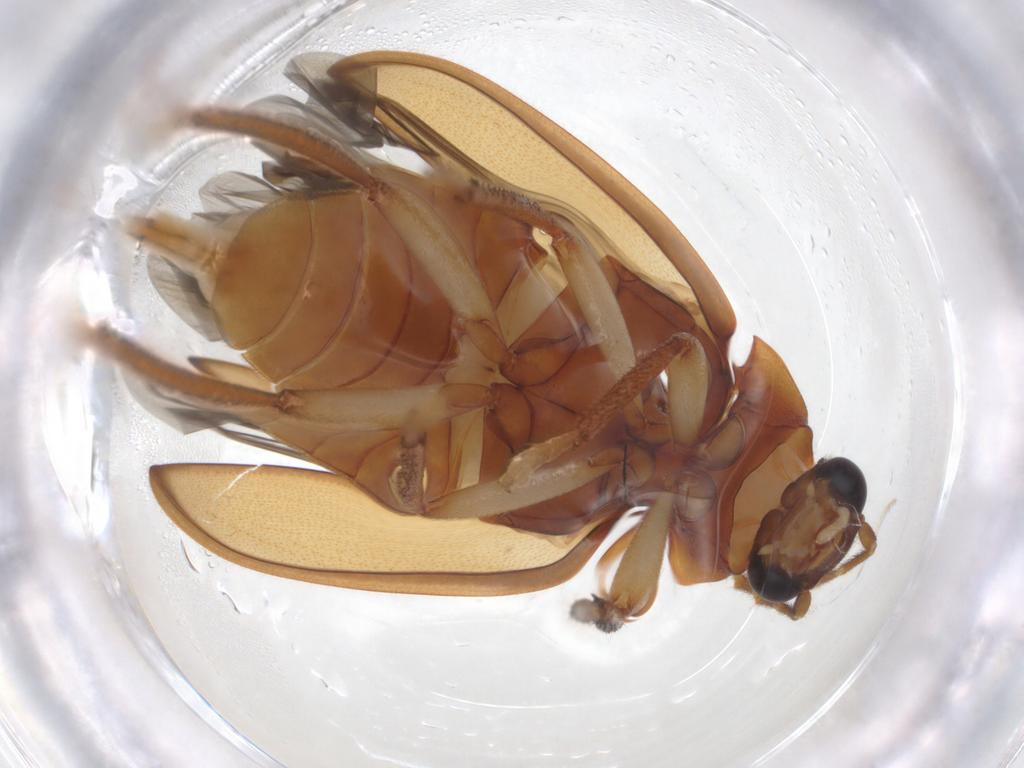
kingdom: Animalia
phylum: Arthropoda
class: Insecta
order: Coleoptera
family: Ptilodactylidae
